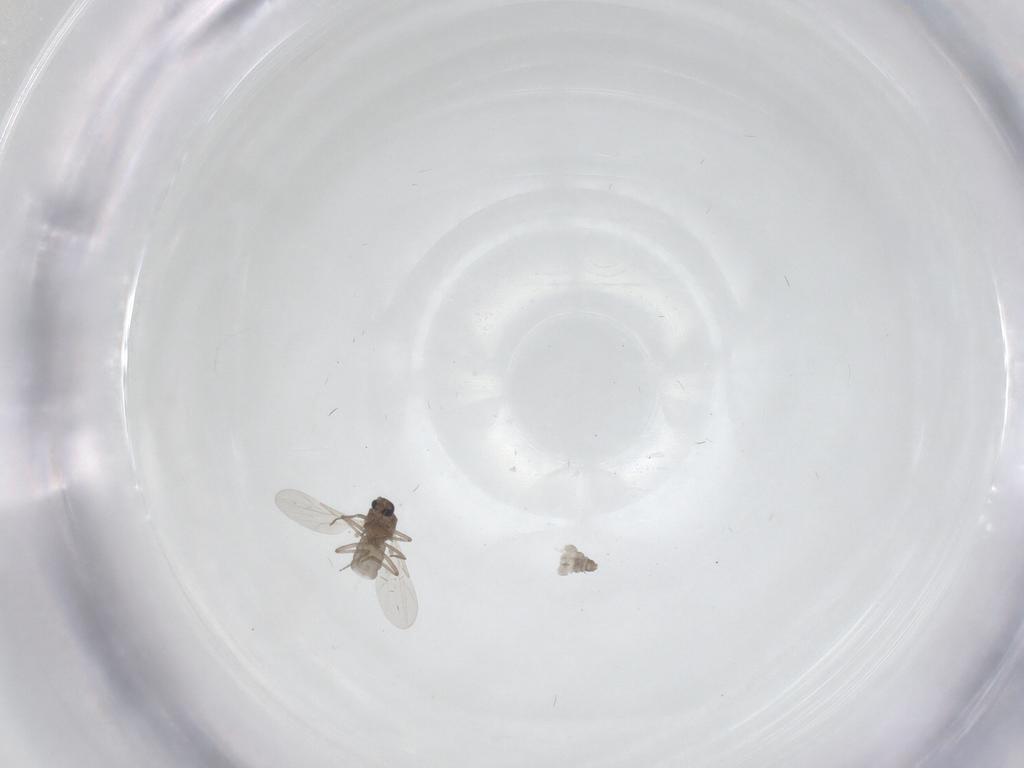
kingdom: Animalia
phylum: Arthropoda
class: Insecta
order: Diptera
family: Ceratopogonidae
